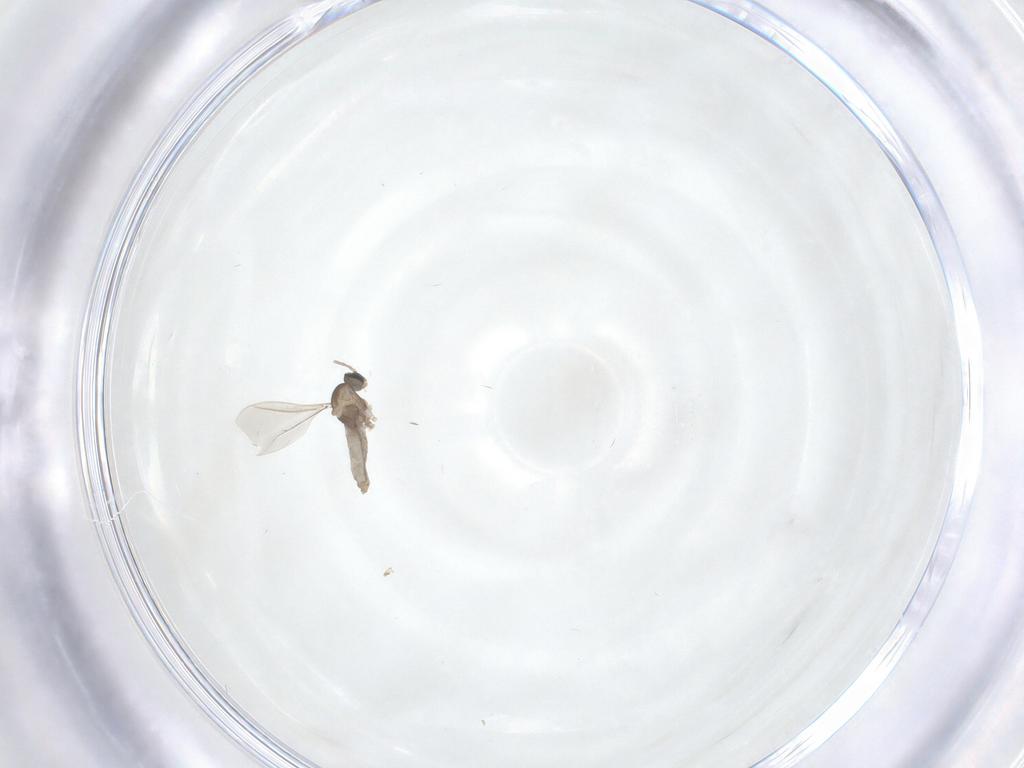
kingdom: Animalia
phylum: Arthropoda
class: Insecta
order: Diptera
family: Cecidomyiidae
